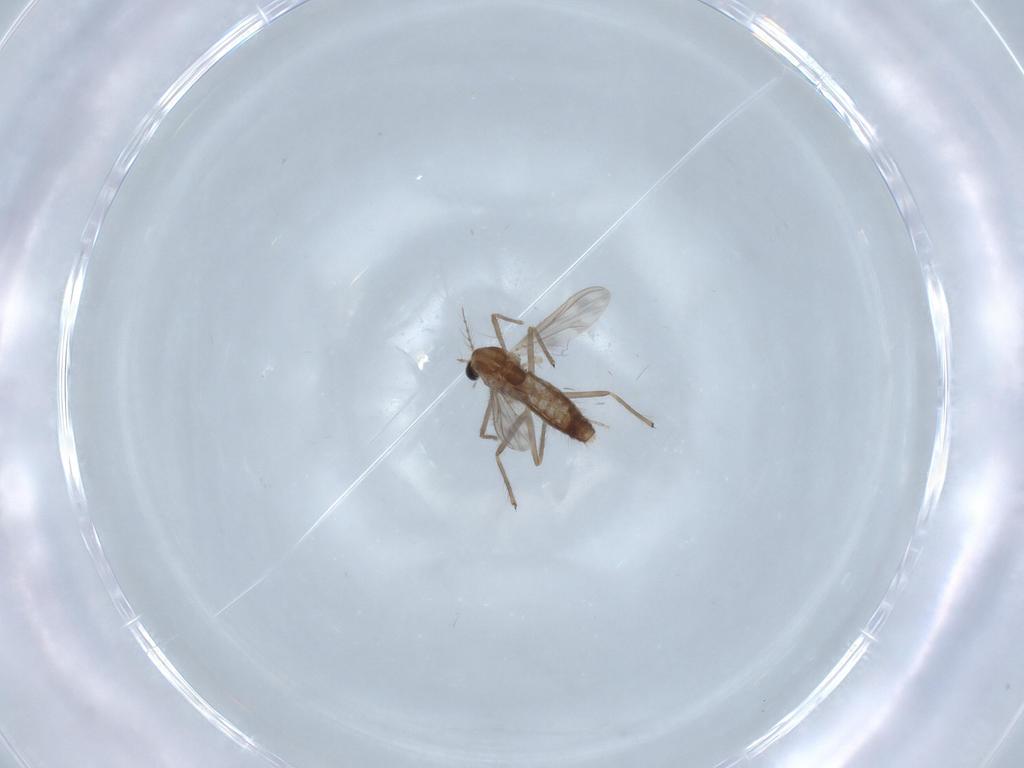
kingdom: Animalia
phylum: Arthropoda
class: Insecta
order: Diptera
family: Chironomidae
